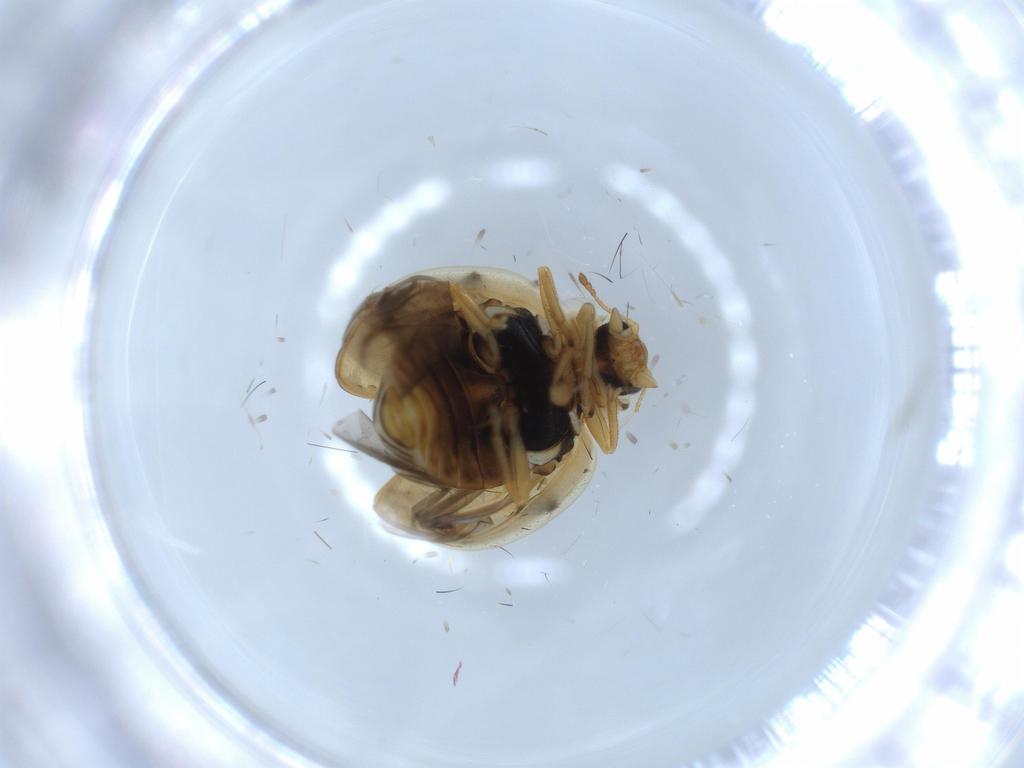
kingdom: Animalia
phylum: Arthropoda
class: Insecta
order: Coleoptera
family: Coccinellidae
